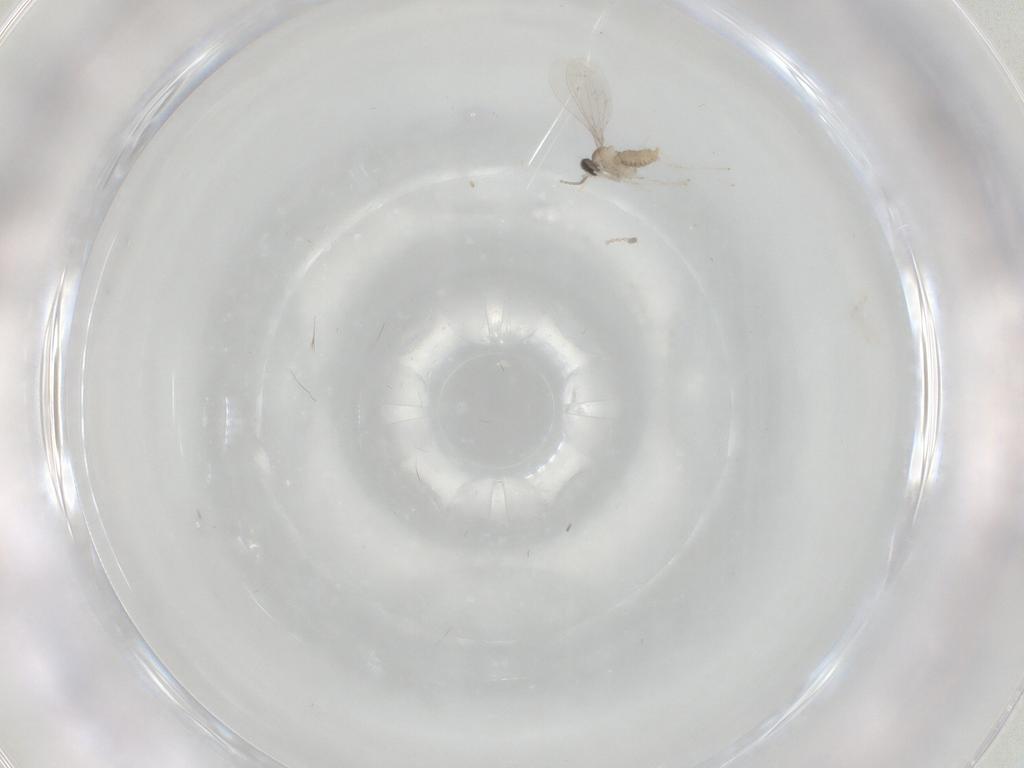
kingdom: Animalia
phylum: Arthropoda
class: Insecta
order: Diptera
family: Cecidomyiidae
